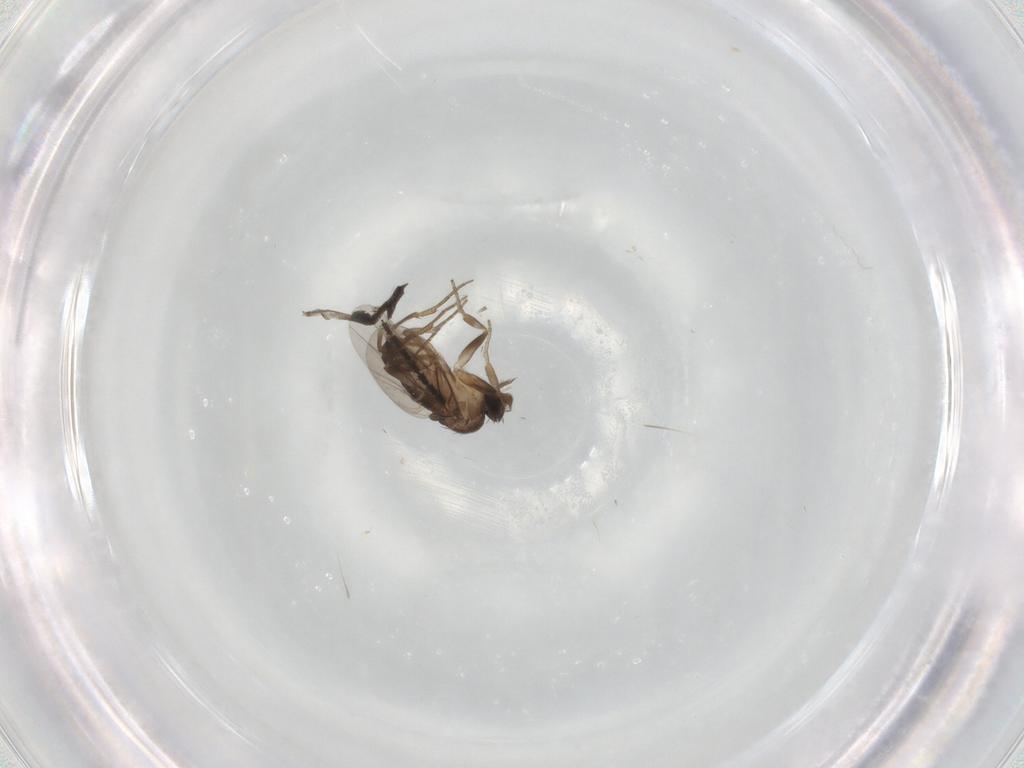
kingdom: Animalia
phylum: Arthropoda
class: Insecta
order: Diptera
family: Phoridae
